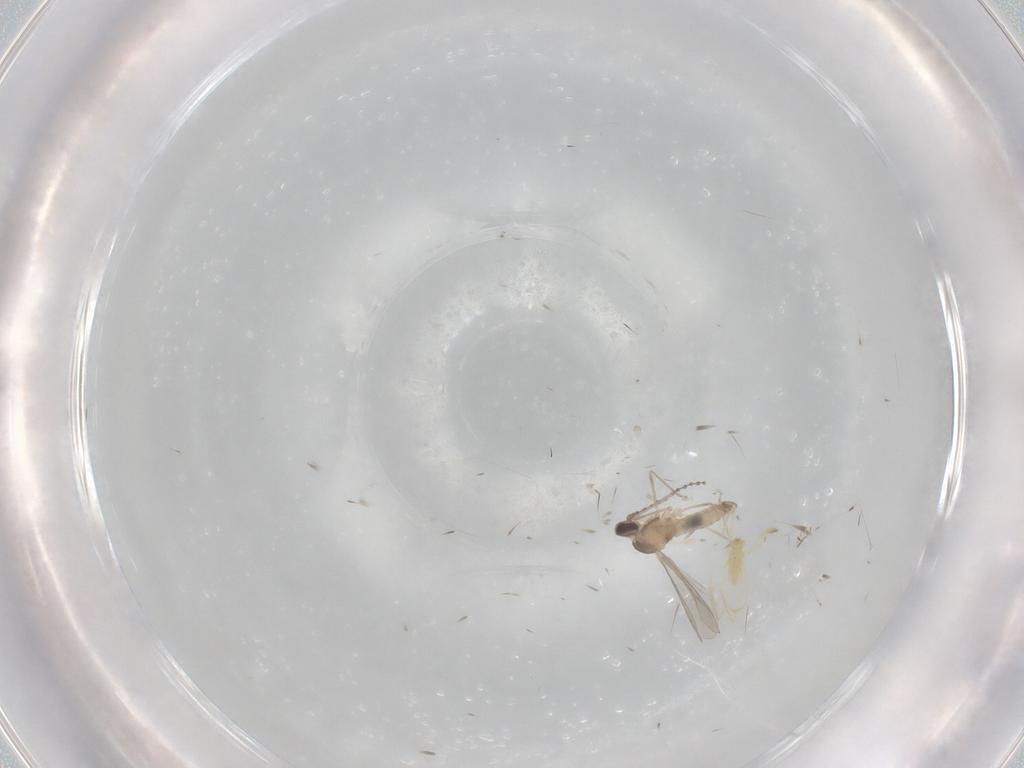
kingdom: Animalia
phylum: Arthropoda
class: Insecta
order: Diptera
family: Cecidomyiidae
